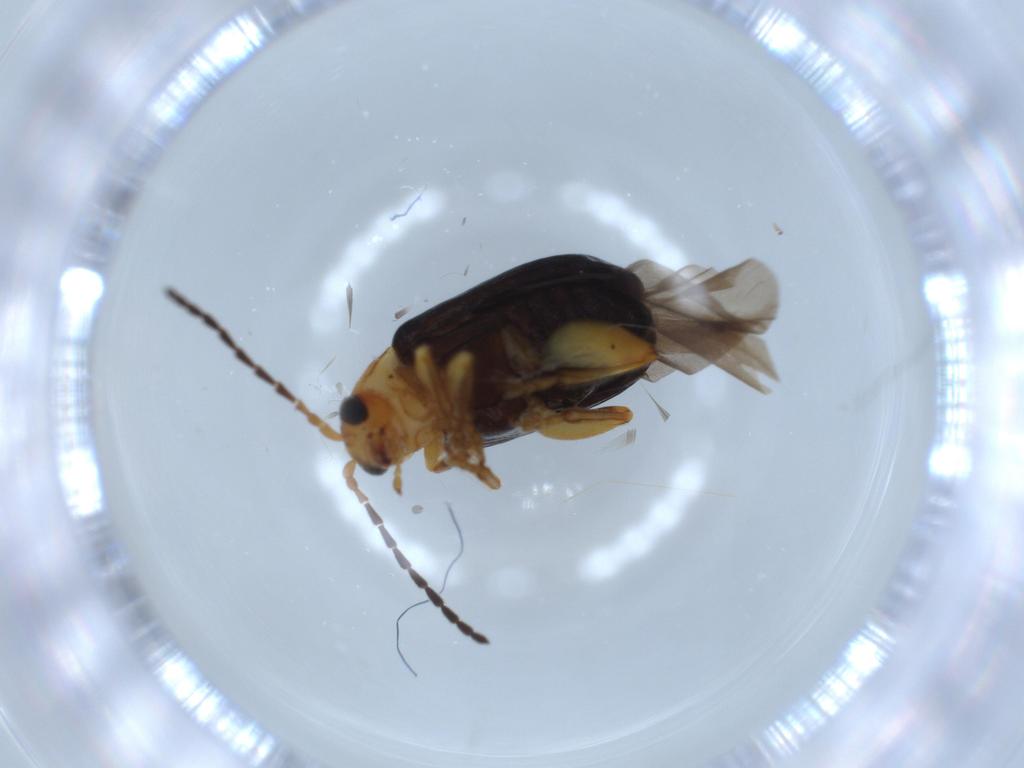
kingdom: Animalia
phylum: Arthropoda
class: Insecta
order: Coleoptera
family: Chrysomelidae
